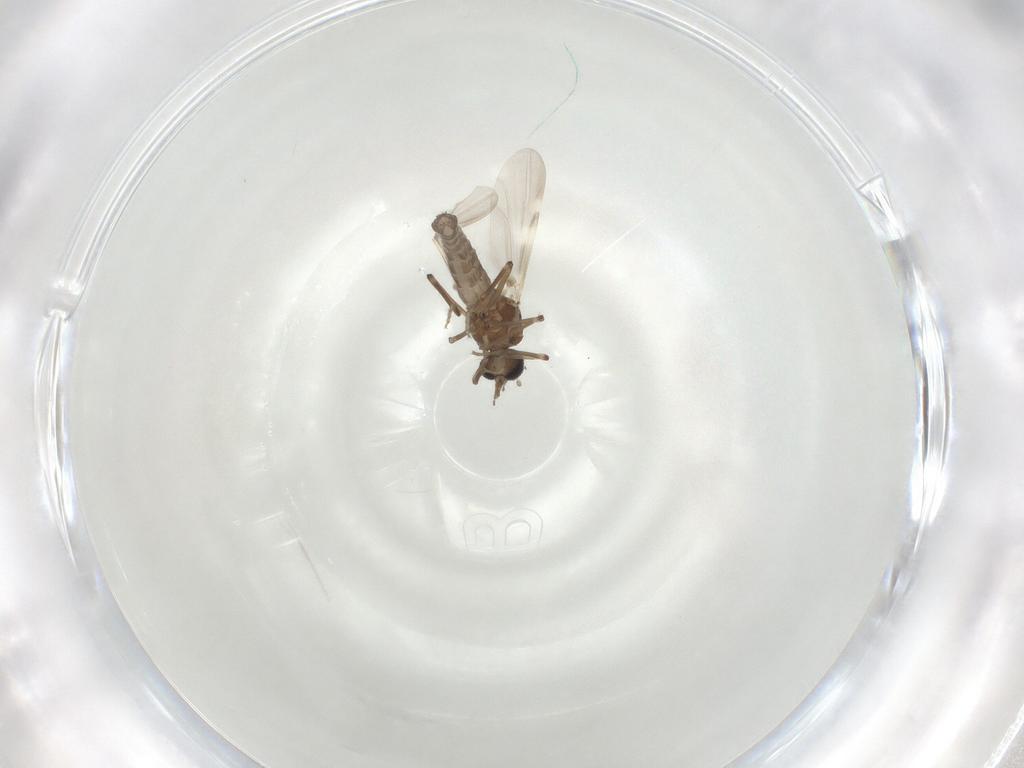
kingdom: Animalia
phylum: Arthropoda
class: Insecta
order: Diptera
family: Ceratopogonidae
